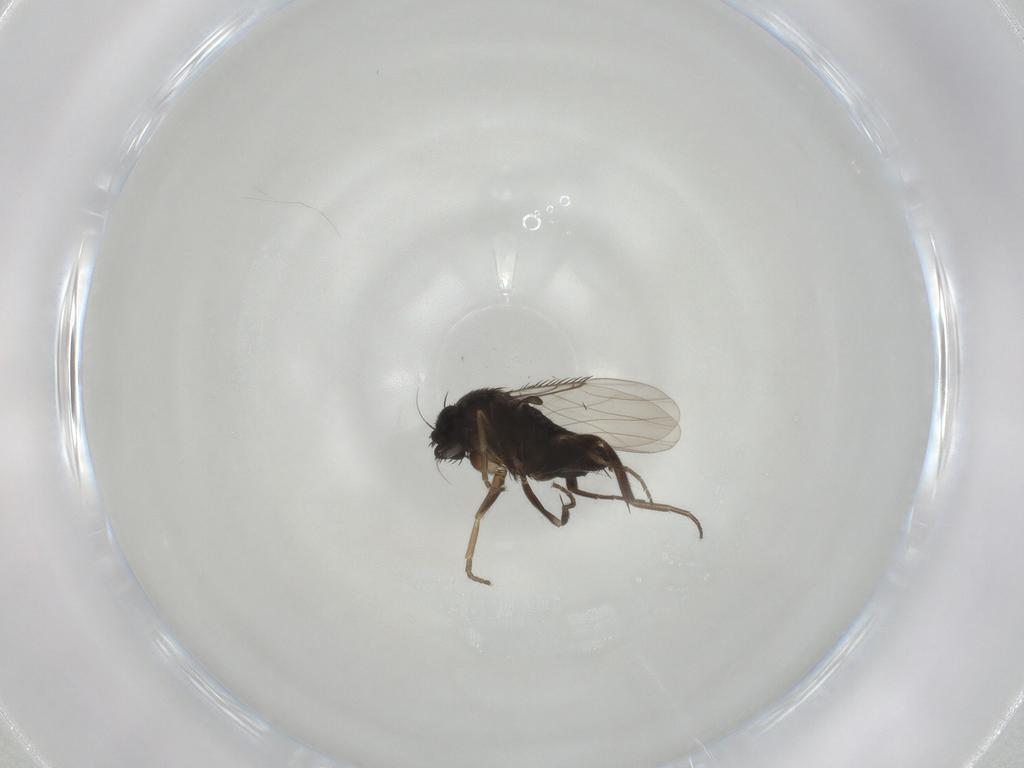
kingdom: Animalia
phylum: Arthropoda
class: Insecta
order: Diptera
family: Phoridae
